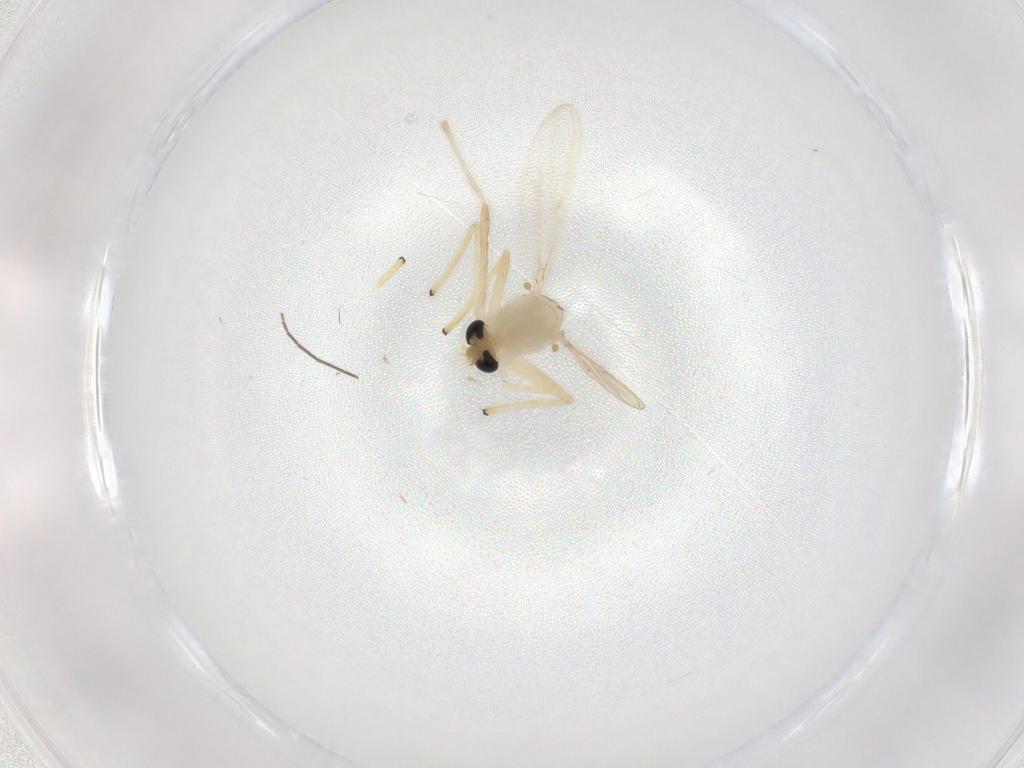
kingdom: Animalia
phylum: Arthropoda
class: Insecta
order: Diptera
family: Chironomidae
